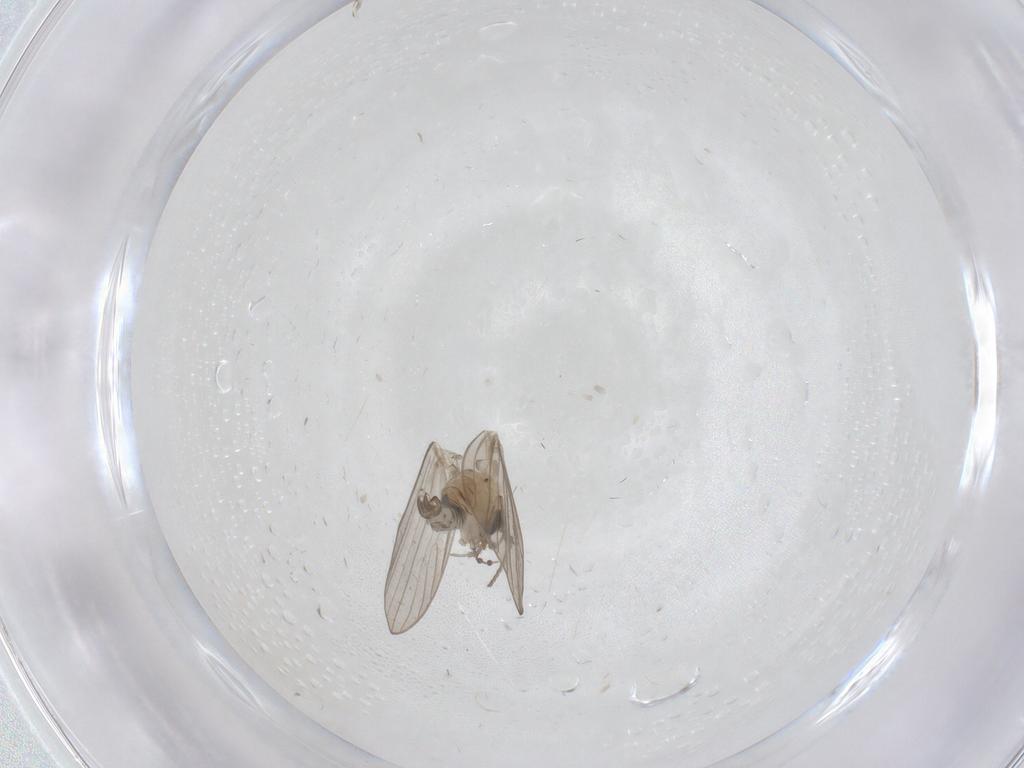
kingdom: Animalia
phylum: Arthropoda
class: Insecta
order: Diptera
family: Psychodidae
